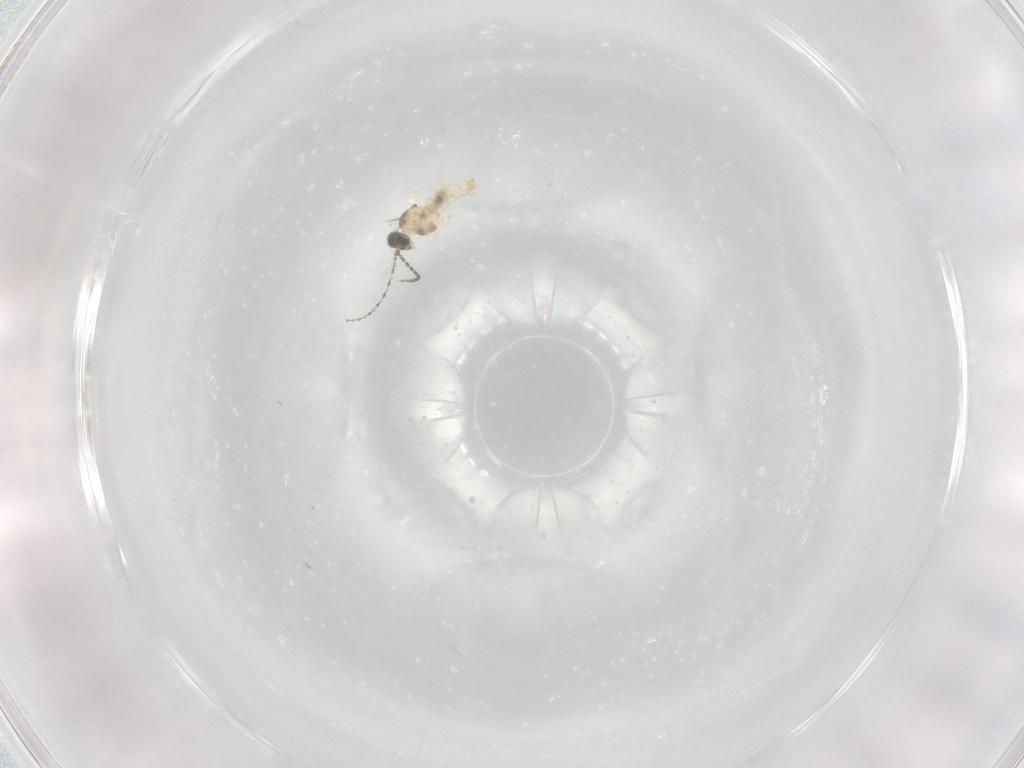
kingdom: Animalia
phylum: Arthropoda
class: Insecta
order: Diptera
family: Cecidomyiidae
